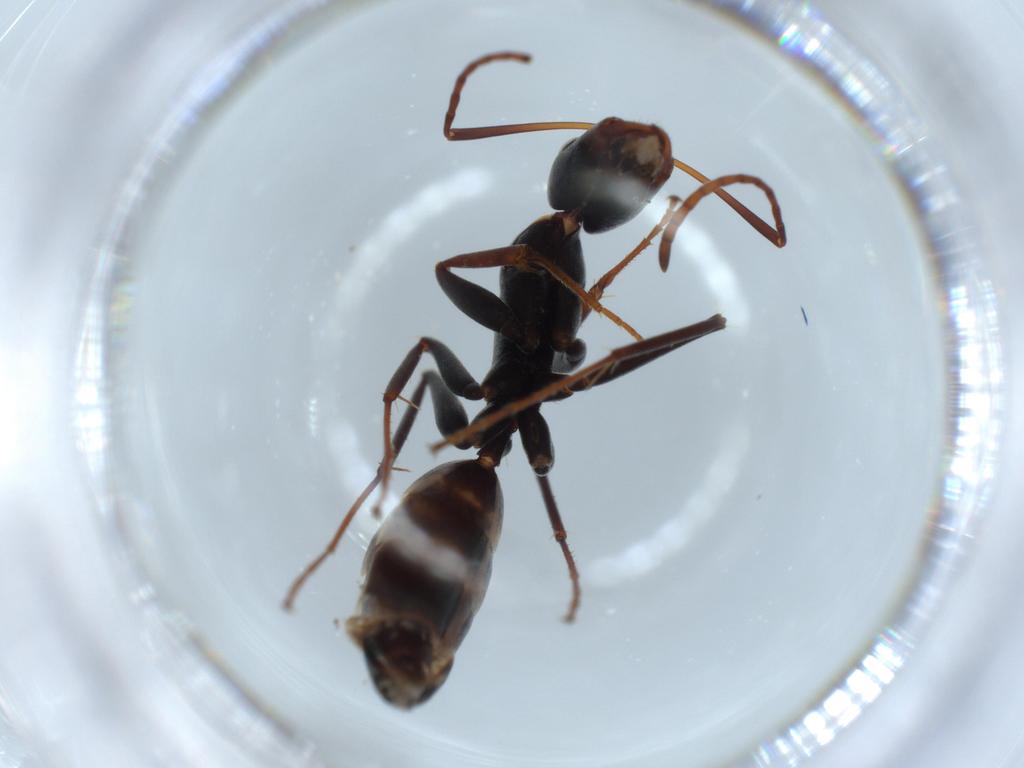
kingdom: Animalia
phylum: Arthropoda
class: Insecta
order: Hymenoptera
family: Formicidae
